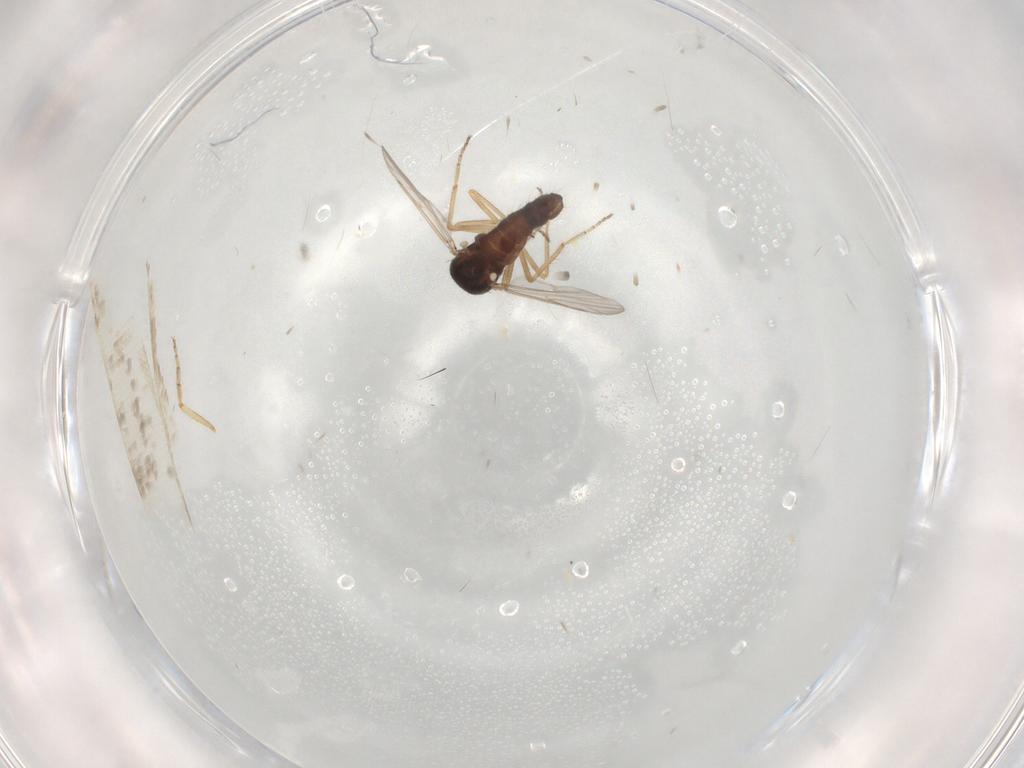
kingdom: Animalia
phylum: Arthropoda
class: Insecta
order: Diptera
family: Ceratopogonidae
